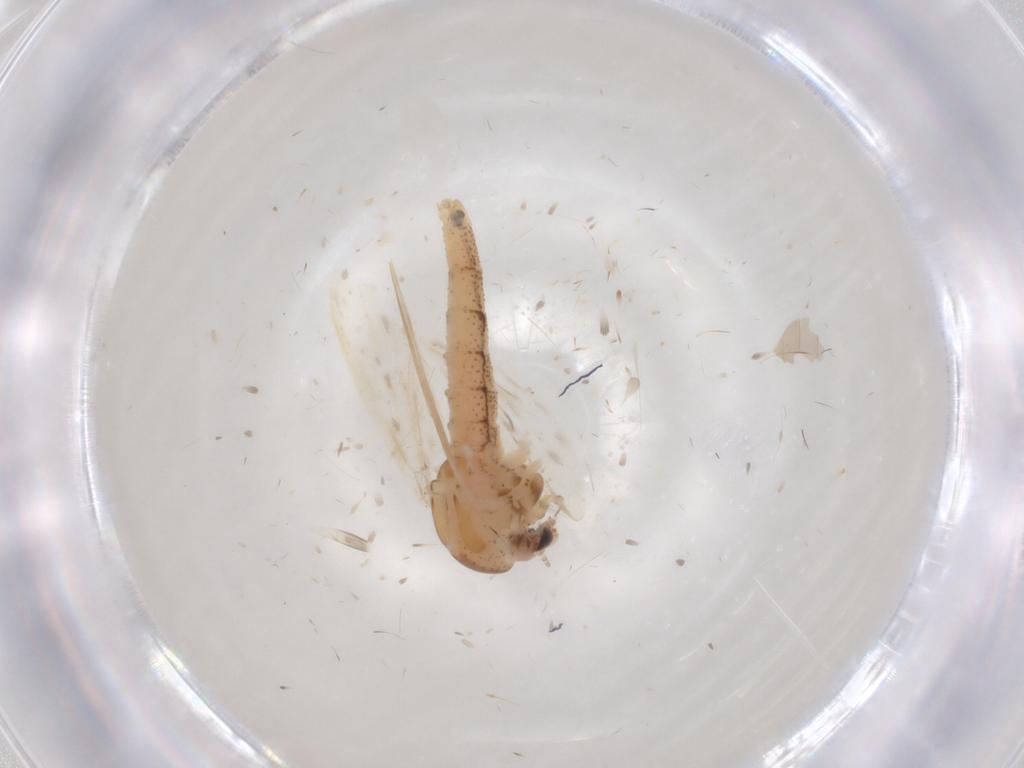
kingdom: Animalia
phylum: Arthropoda
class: Insecta
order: Diptera
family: Chaoboridae
